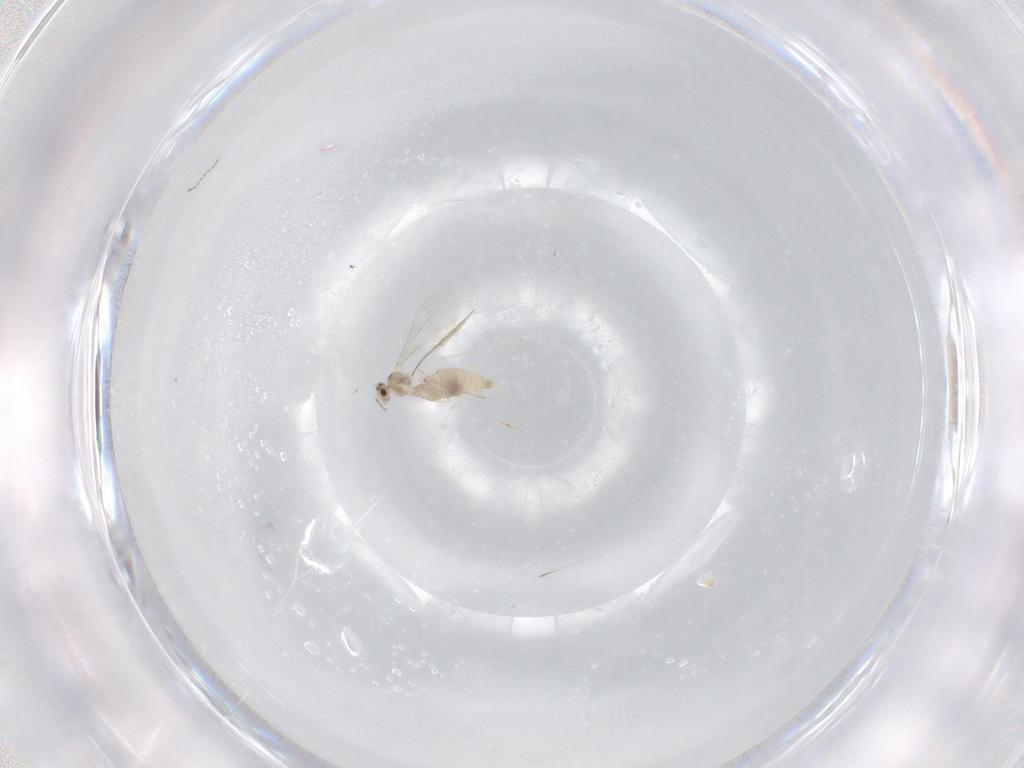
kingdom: Animalia
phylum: Arthropoda
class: Insecta
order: Diptera
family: Cecidomyiidae
